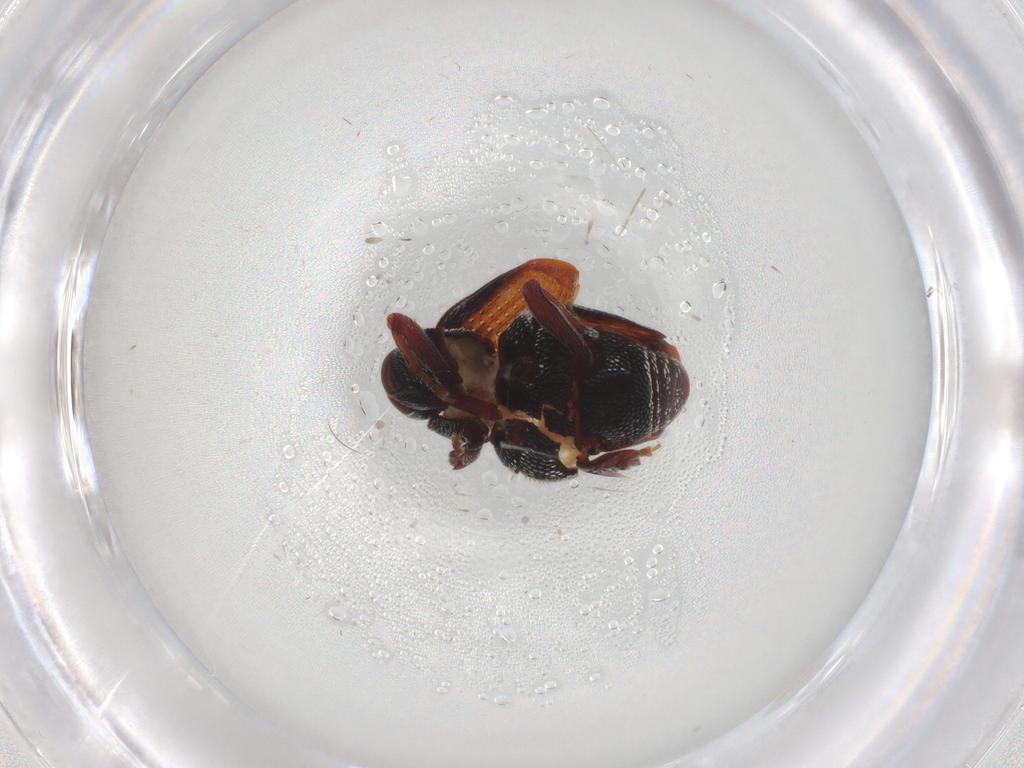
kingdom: Animalia
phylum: Arthropoda
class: Insecta
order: Coleoptera
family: Curculionidae
